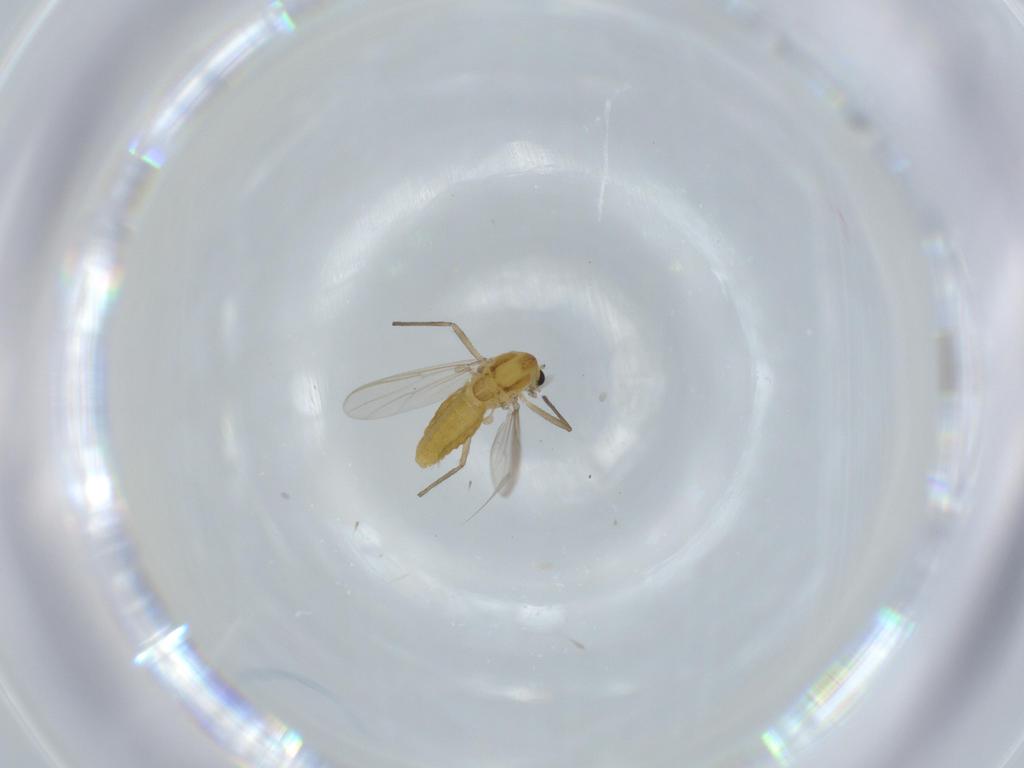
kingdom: Animalia
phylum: Arthropoda
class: Insecta
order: Diptera
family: Chironomidae
